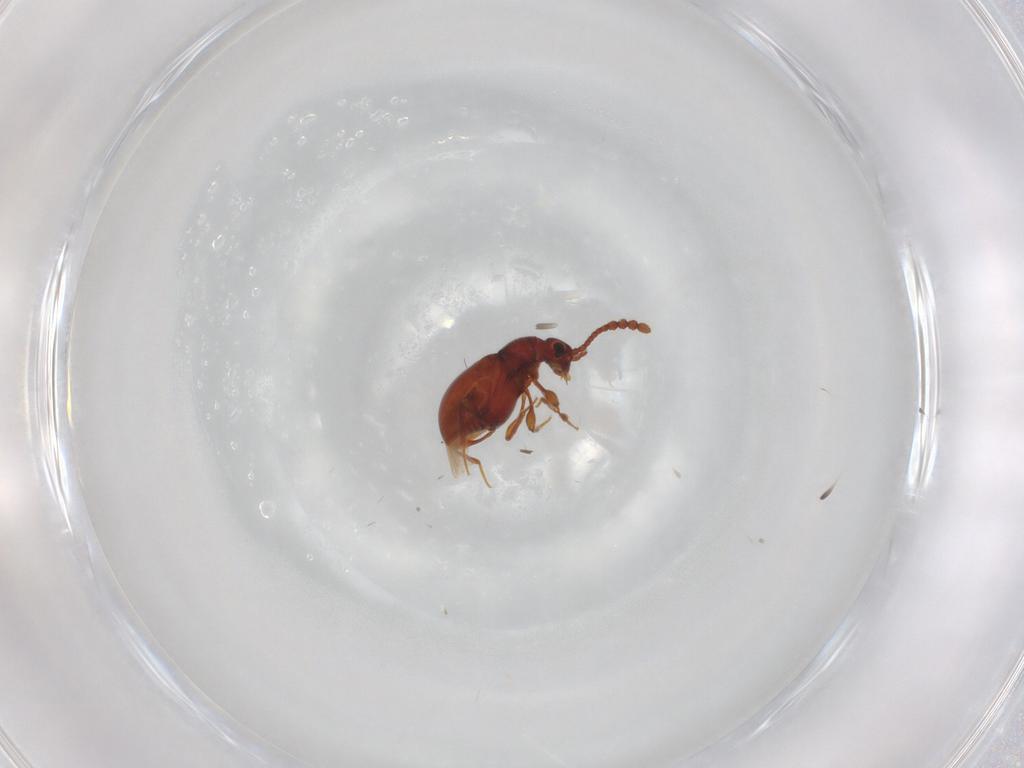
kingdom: Animalia
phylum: Arthropoda
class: Insecta
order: Coleoptera
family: Staphylinidae
